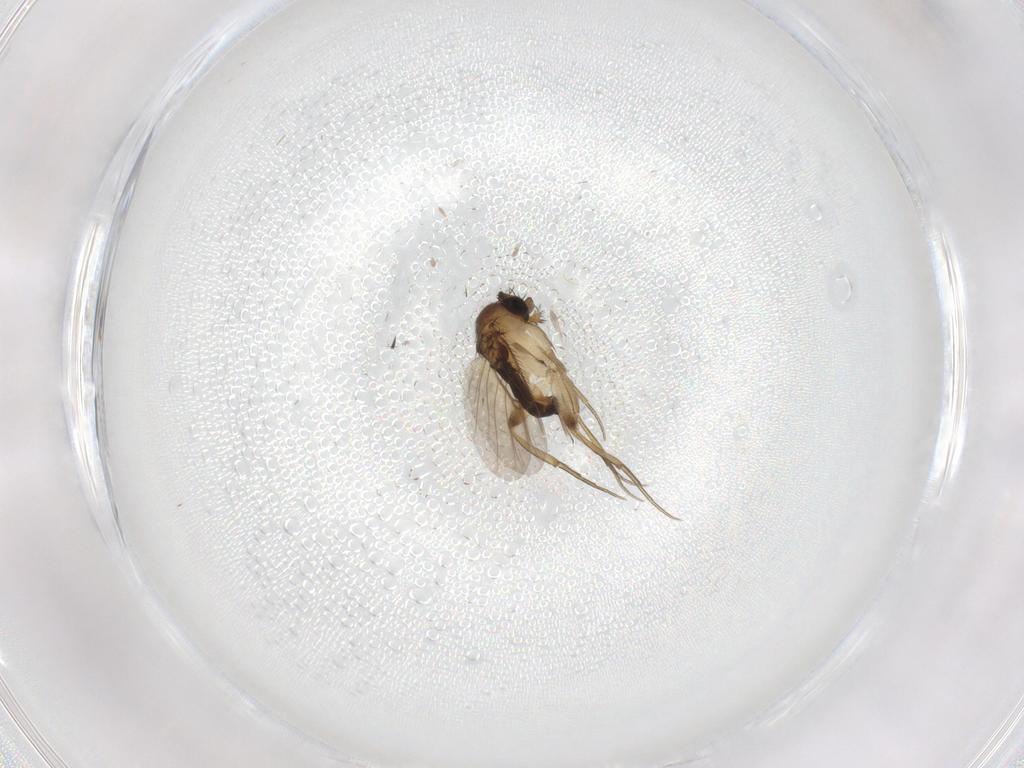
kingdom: Animalia
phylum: Arthropoda
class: Insecta
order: Diptera
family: Phoridae
